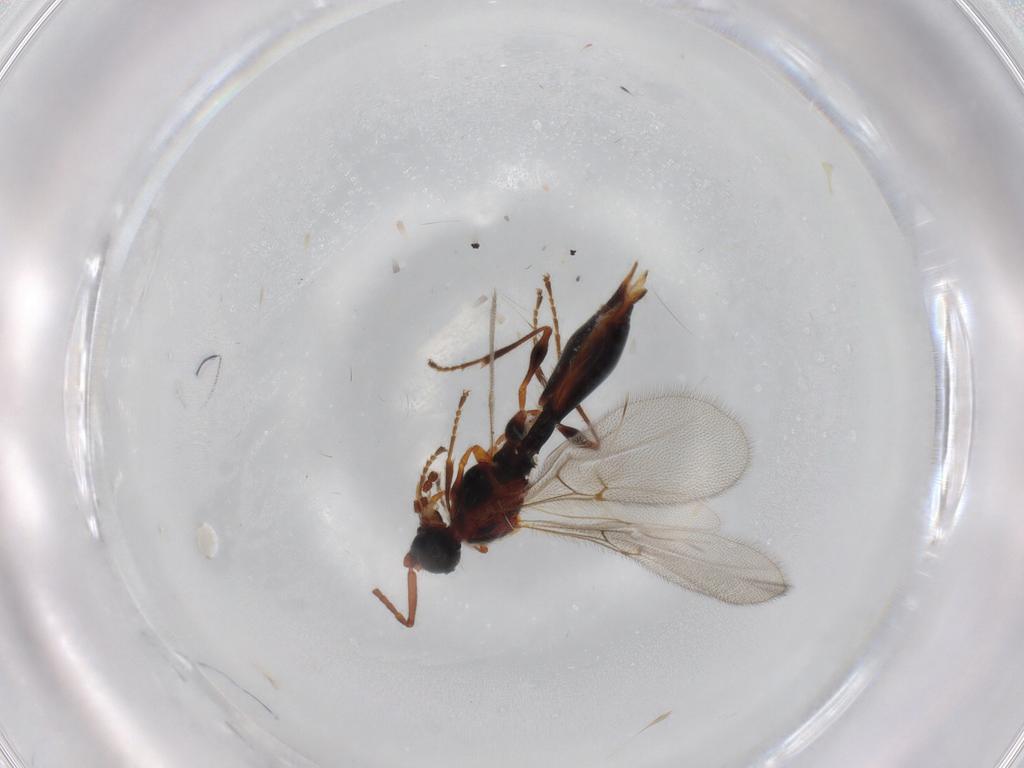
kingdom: Animalia
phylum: Arthropoda
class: Insecta
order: Hymenoptera
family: Diapriidae
